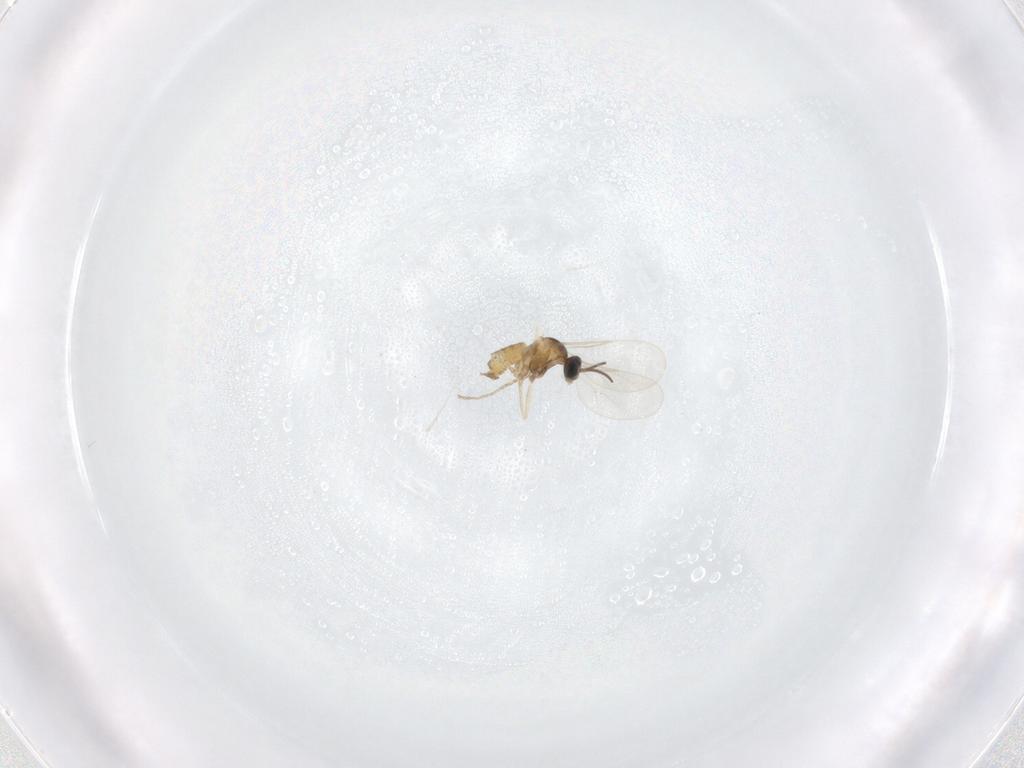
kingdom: Animalia
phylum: Arthropoda
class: Insecta
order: Diptera
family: Cecidomyiidae
